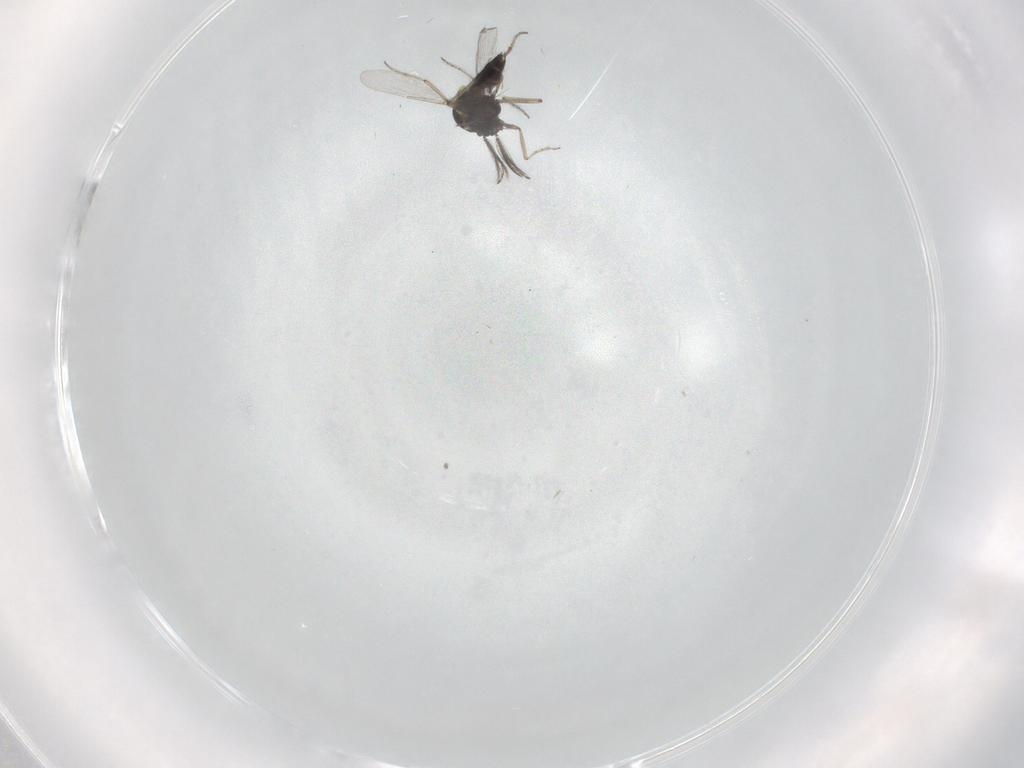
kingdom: Animalia
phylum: Arthropoda
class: Insecta
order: Diptera
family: Ceratopogonidae
